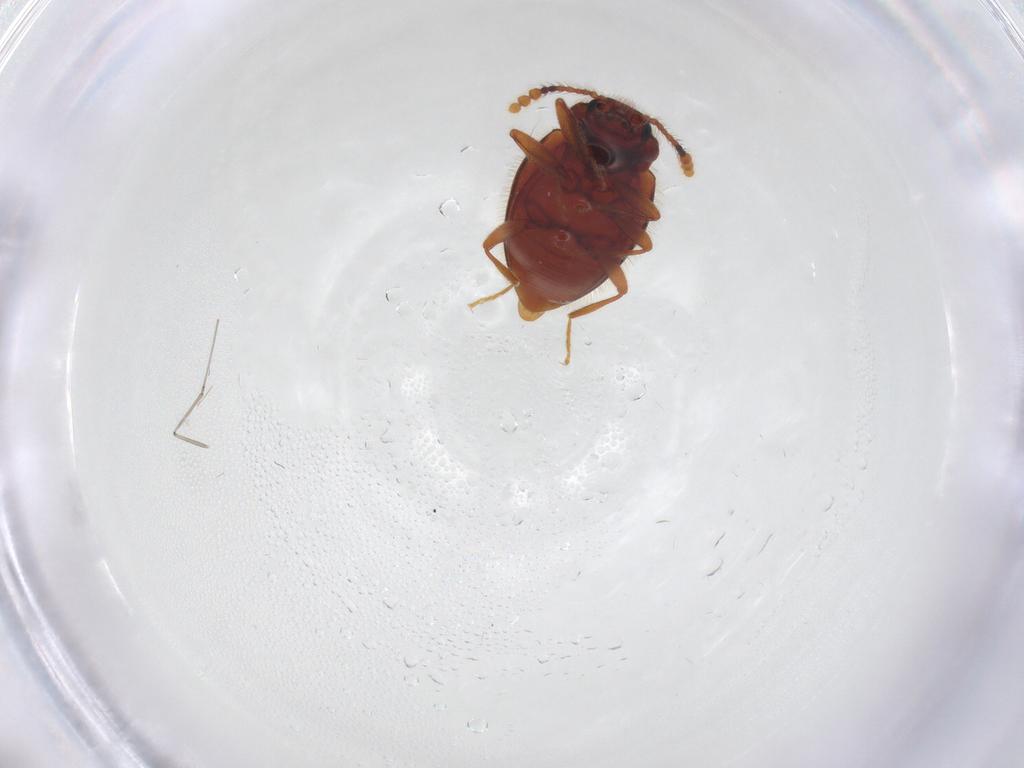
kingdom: Animalia
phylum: Arthropoda
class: Insecta
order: Coleoptera
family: Erotylidae
